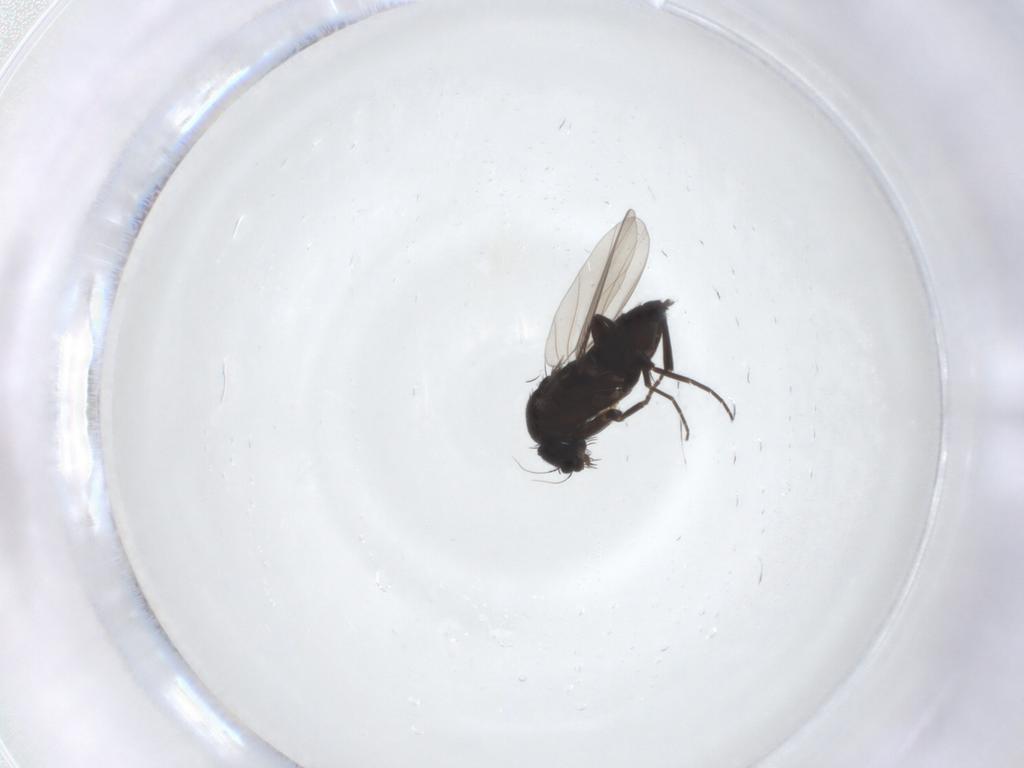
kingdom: Animalia
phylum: Arthropoda
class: Insecta
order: Diptera
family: Phoridae
